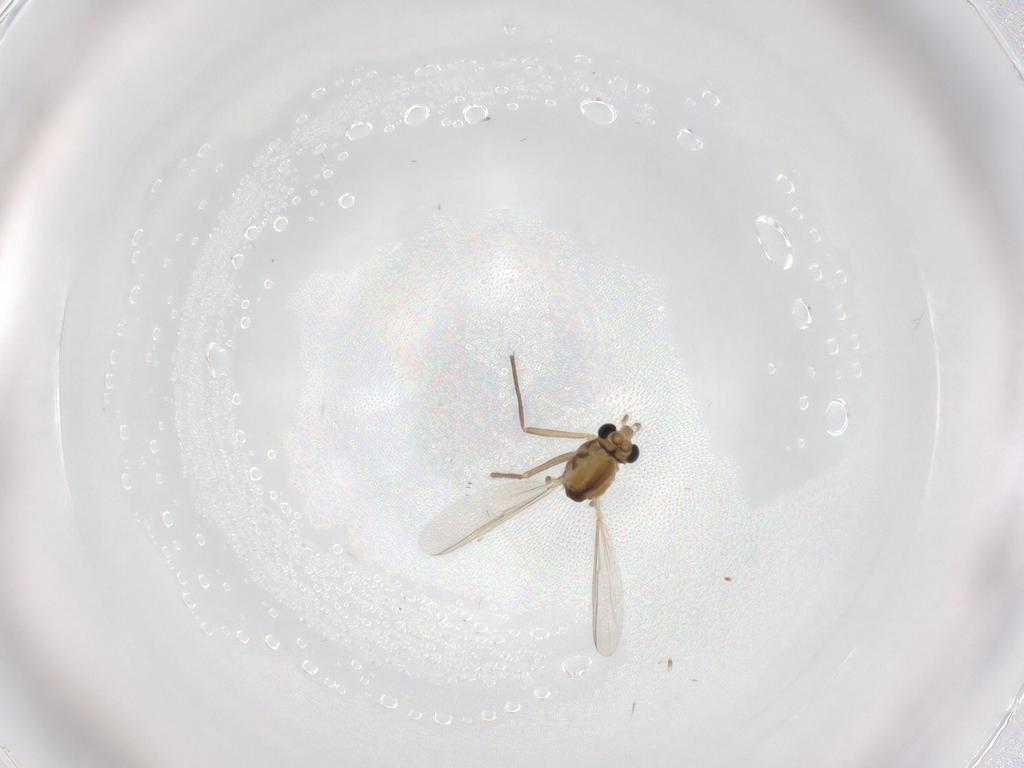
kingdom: Animalia
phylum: Arthropoda
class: Insecta
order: Diptera
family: Chironomidae
